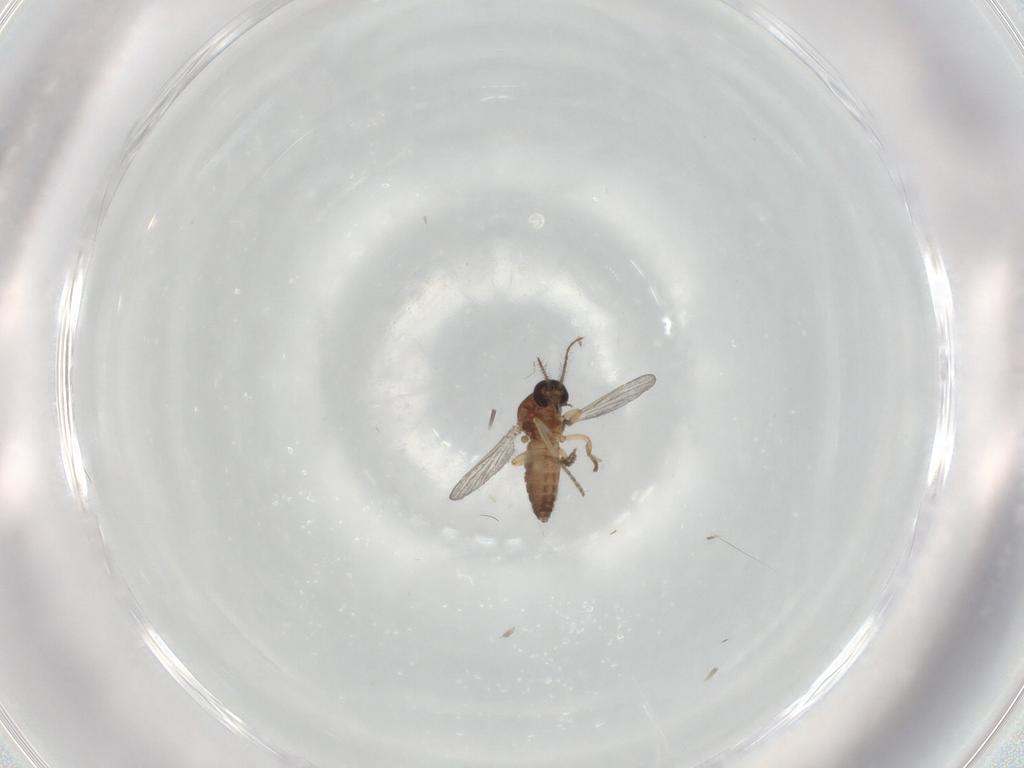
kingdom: Animalia
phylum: Arthropoda
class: Insecta
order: Diptera
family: Ceratopogonidae
